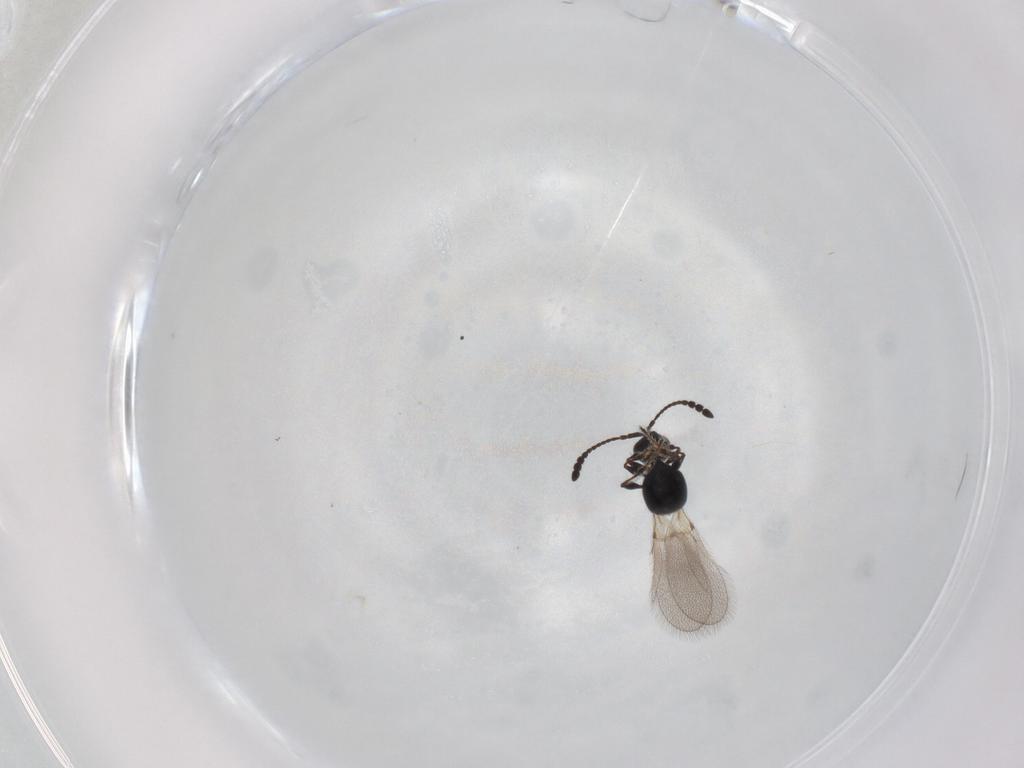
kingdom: Animalia
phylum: Arthropoda
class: Insecta
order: Hymenoptera
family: Diapriidae
